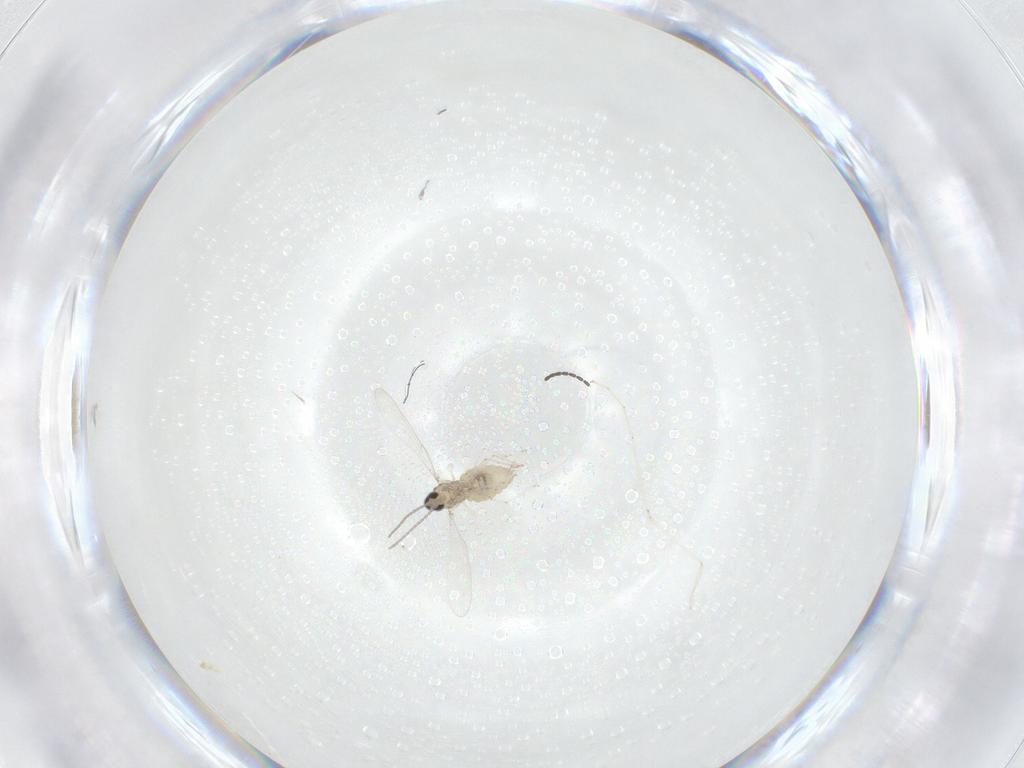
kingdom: Animalia
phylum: Arthropoda
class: Insecta
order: Diptera
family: Cecidomyiidae
